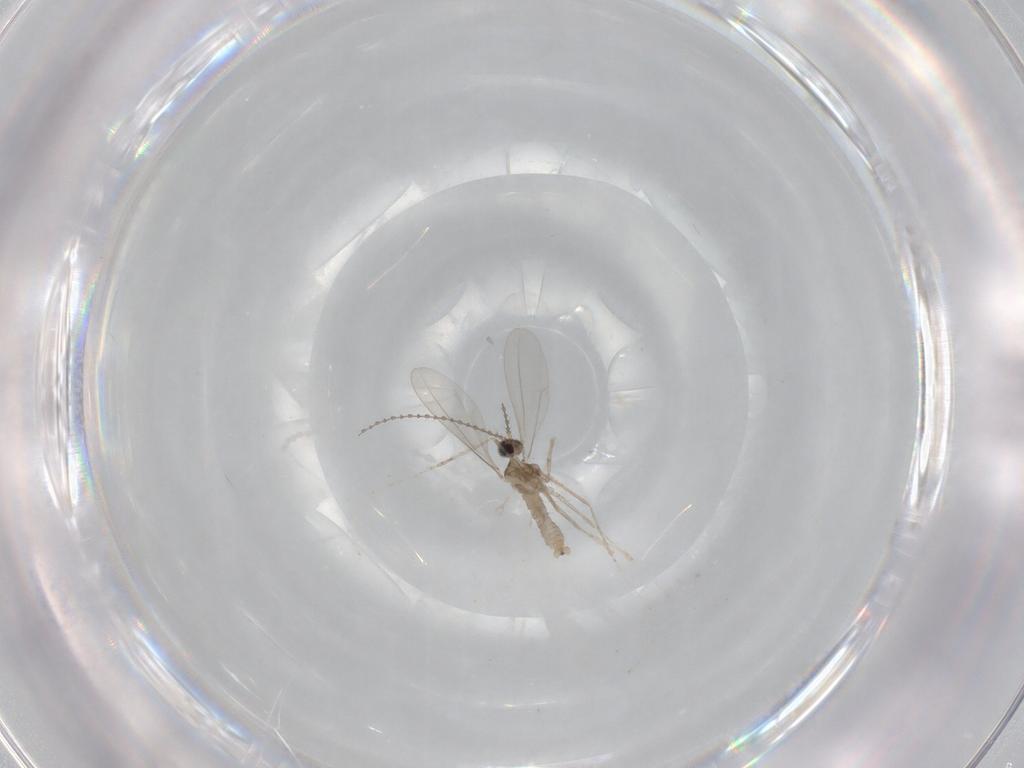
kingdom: Animalia
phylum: Arthropoda
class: Insecta
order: Diptera
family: Cecidomyiidae
